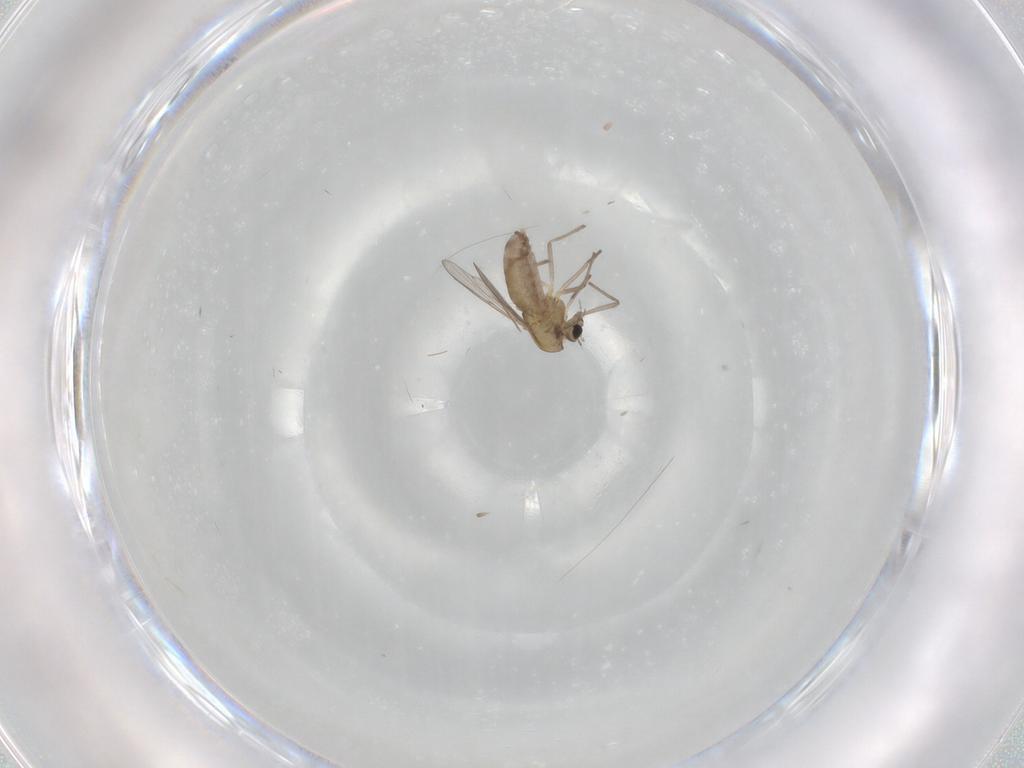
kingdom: Animalia
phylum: Arthropoda
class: Insecta
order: Diptera
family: Chironomidae
